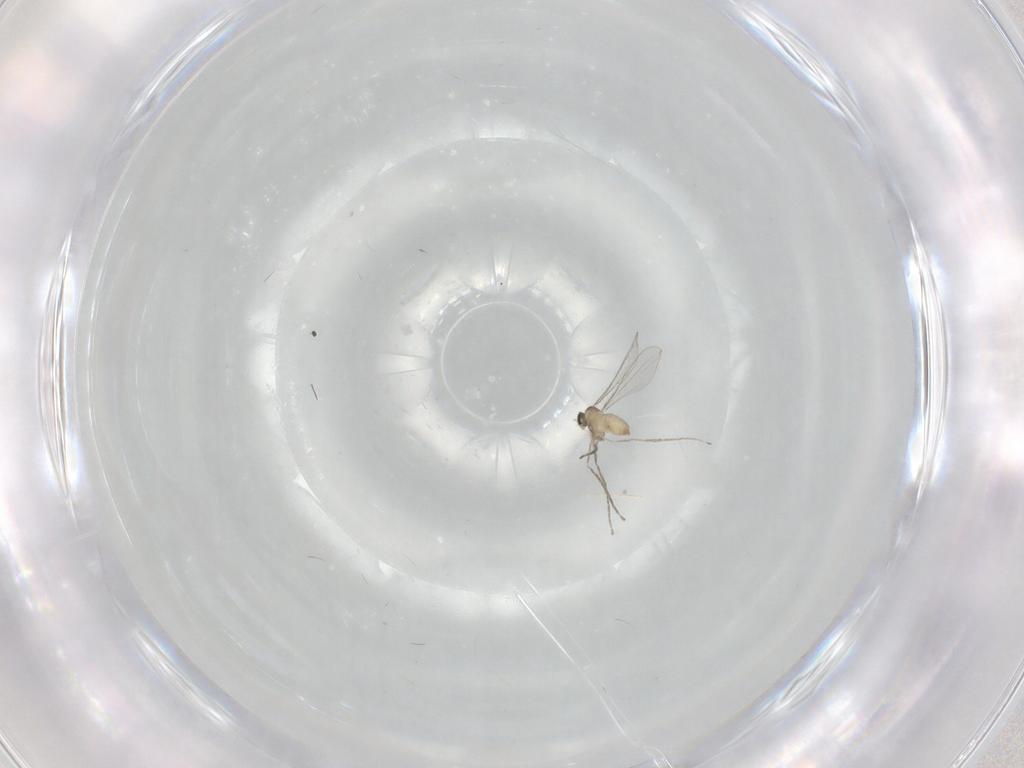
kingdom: Animalia
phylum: Arthropoda
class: Insecta
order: Diptera
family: Cecidomyiidae
